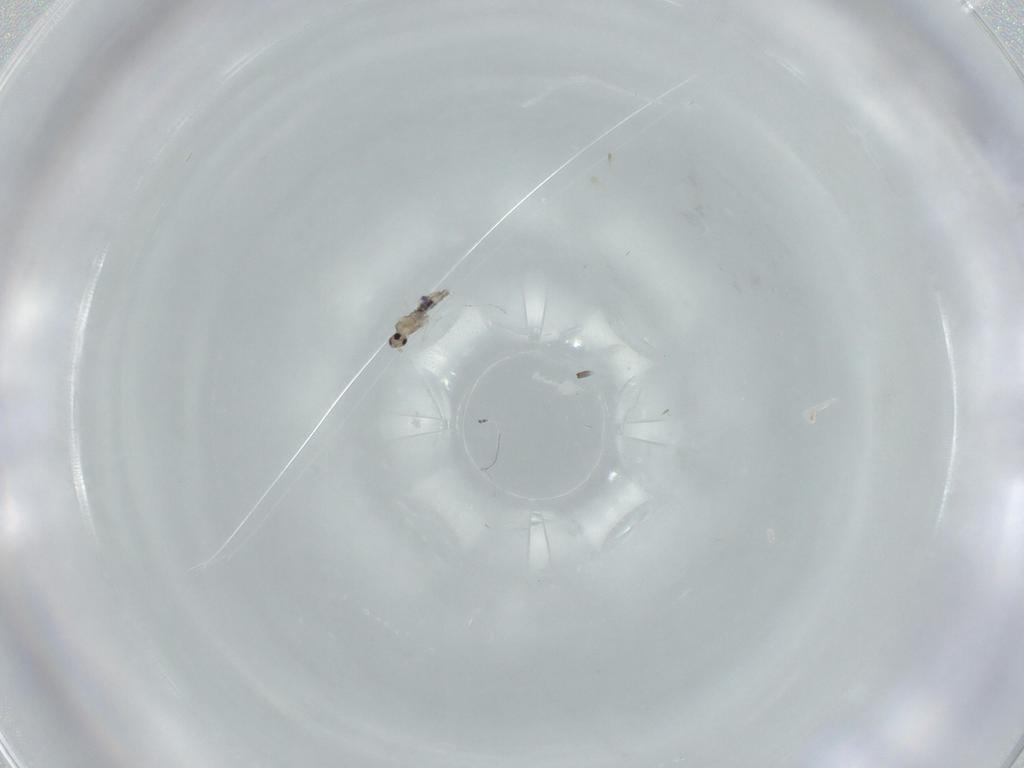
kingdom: Animalia
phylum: Arthropoda
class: Insecta
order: Diptera
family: Cecidomyiidae
